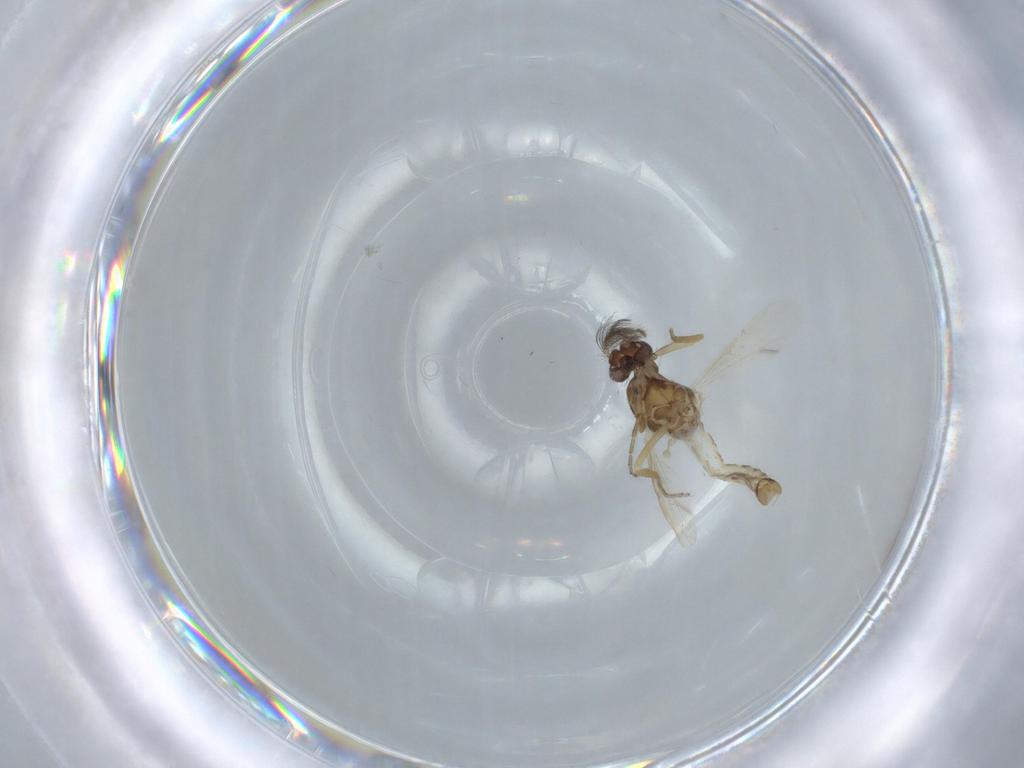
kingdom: Animalia
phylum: Arthropoda
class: Insecta
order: Diptera
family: Ceratopogonidae
